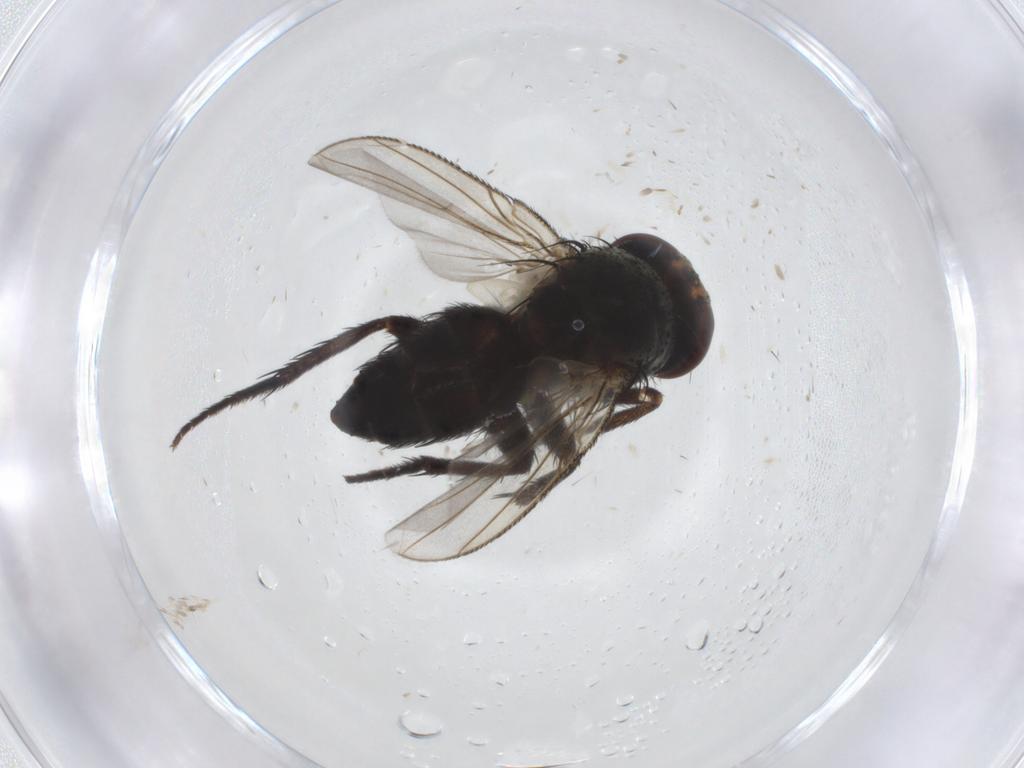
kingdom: Animalia
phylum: Arthropoda
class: Insecta
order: Diptera
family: Tachinidae
